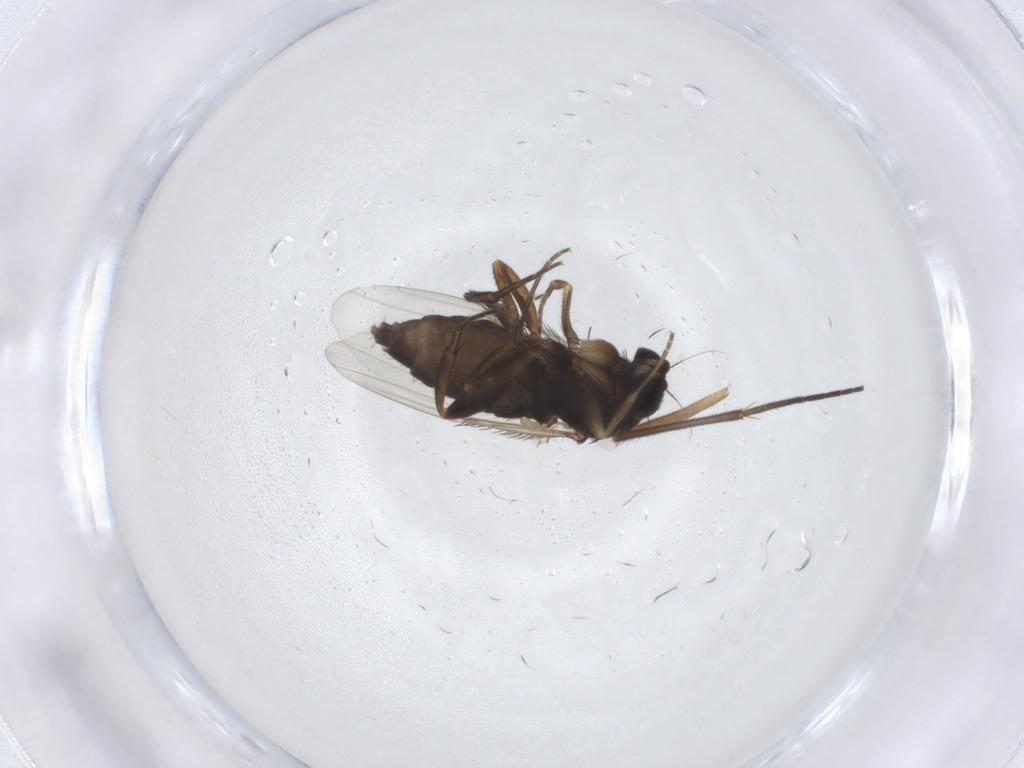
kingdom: Animalia
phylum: Arthropoda
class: Insecta
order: Diptera
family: Phoridae
